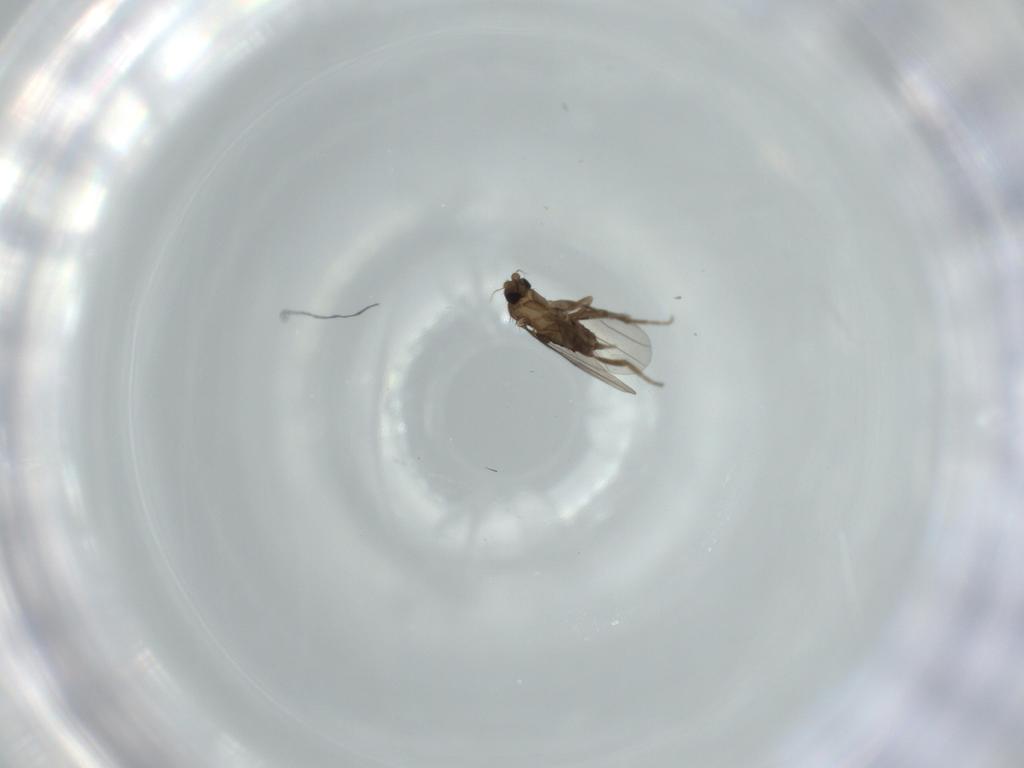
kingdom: Animalia
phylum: Arthropoda
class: Insecta
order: Diptera
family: Phoridae
